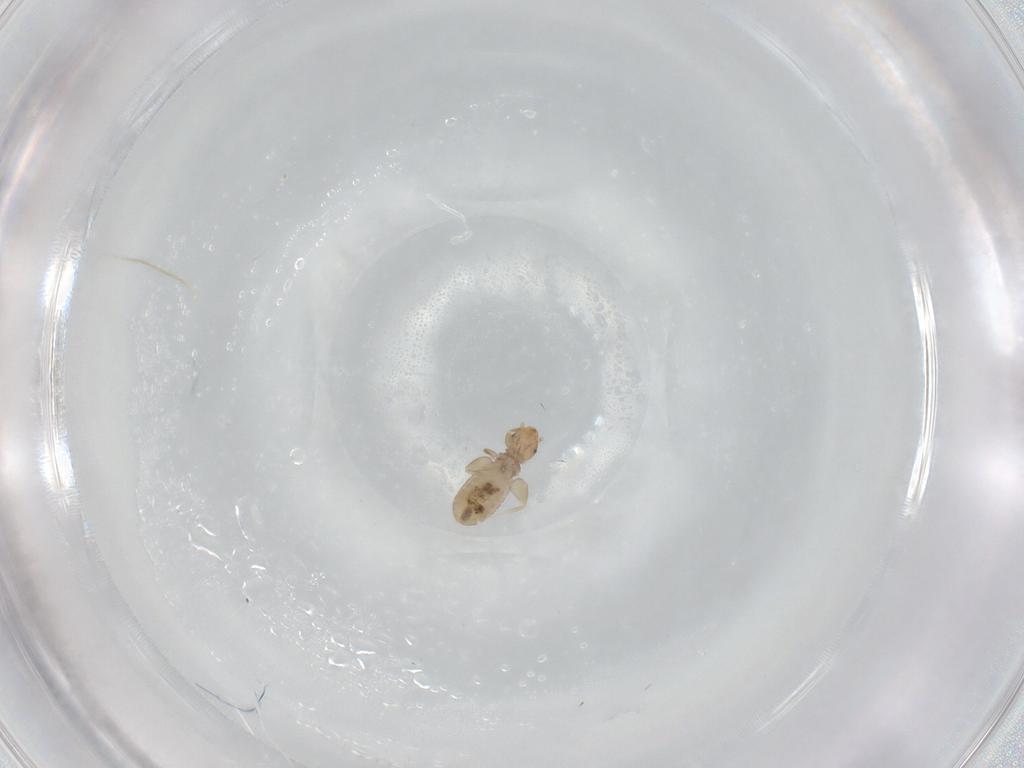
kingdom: Animalia
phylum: Arthropoda
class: Insecta
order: Psocodea
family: Liposcelididae
